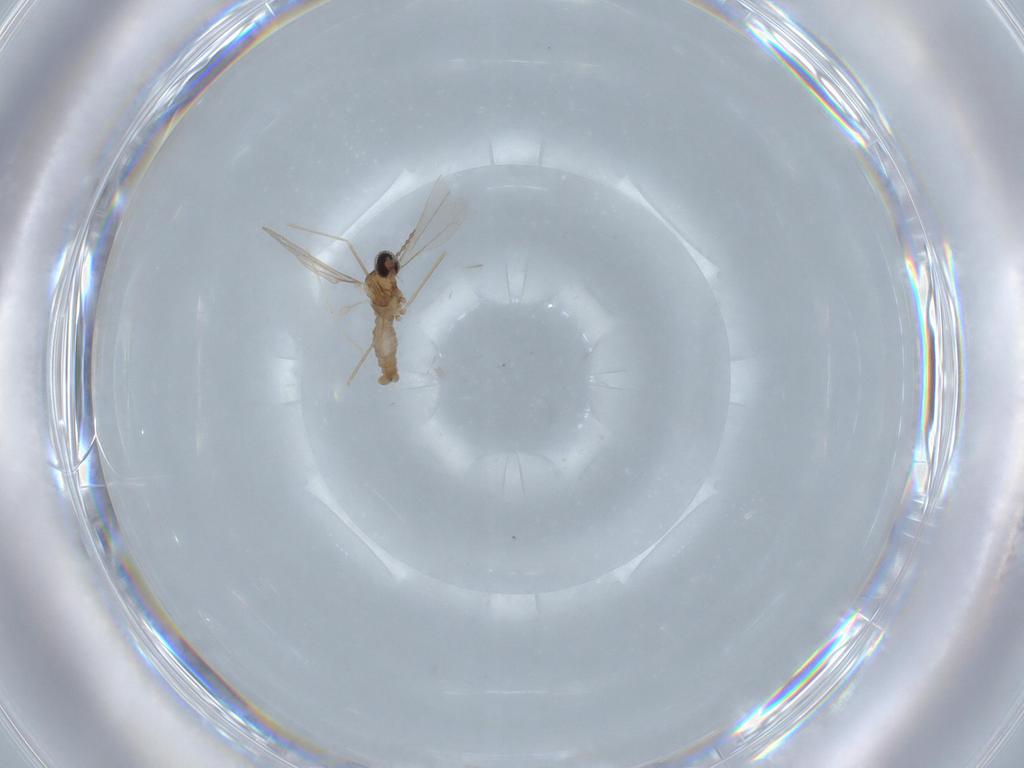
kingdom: Animalia
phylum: Arthropoda
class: Insecta
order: Diptera
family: Cecidomyiidae
